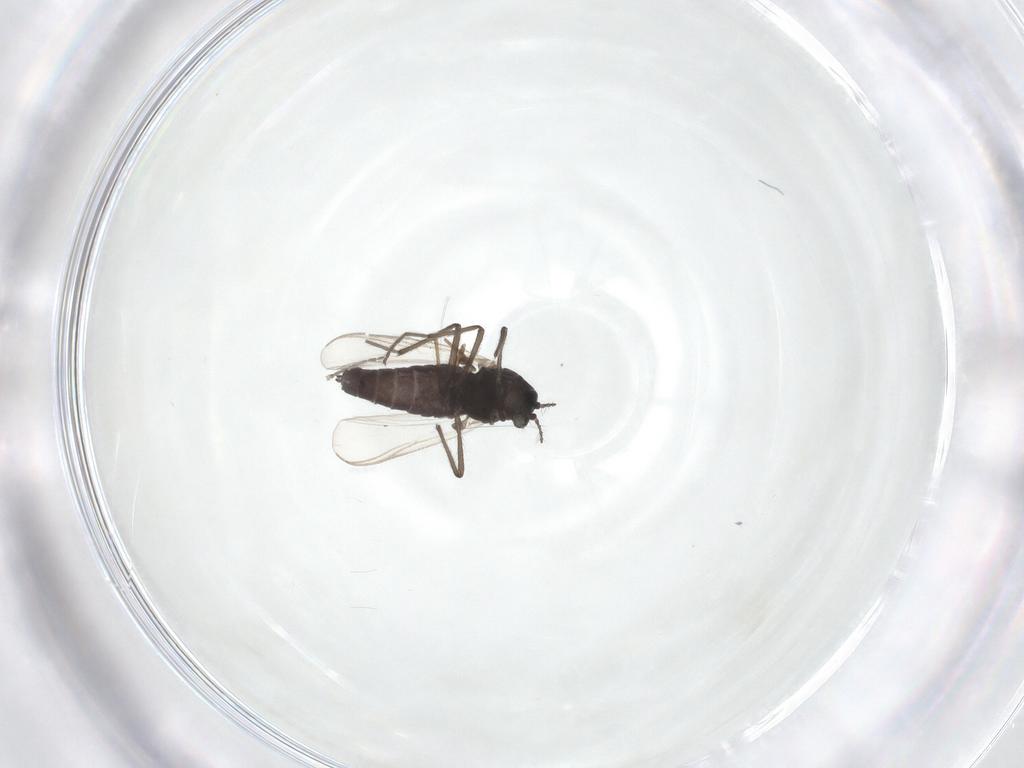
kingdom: Animalia
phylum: Arthropoda
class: Insecta
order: Diptera
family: Chironomidae
